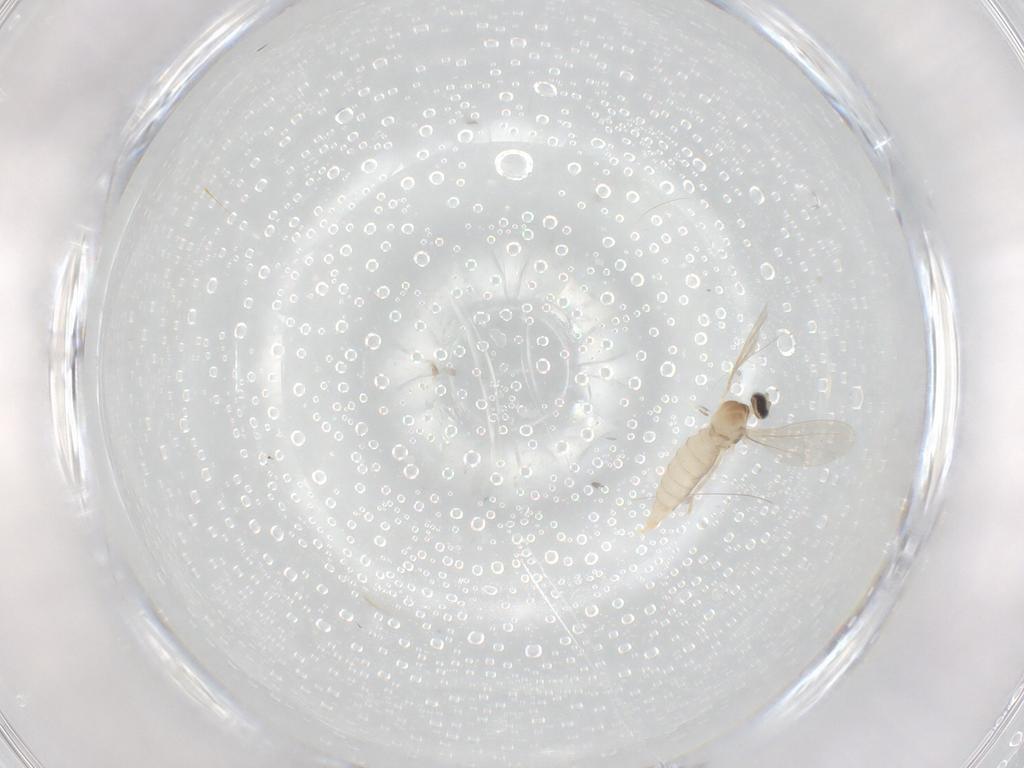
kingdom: Animalia
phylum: Arthropoda
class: Insecta
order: Diptera
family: Cecidomyiidae
